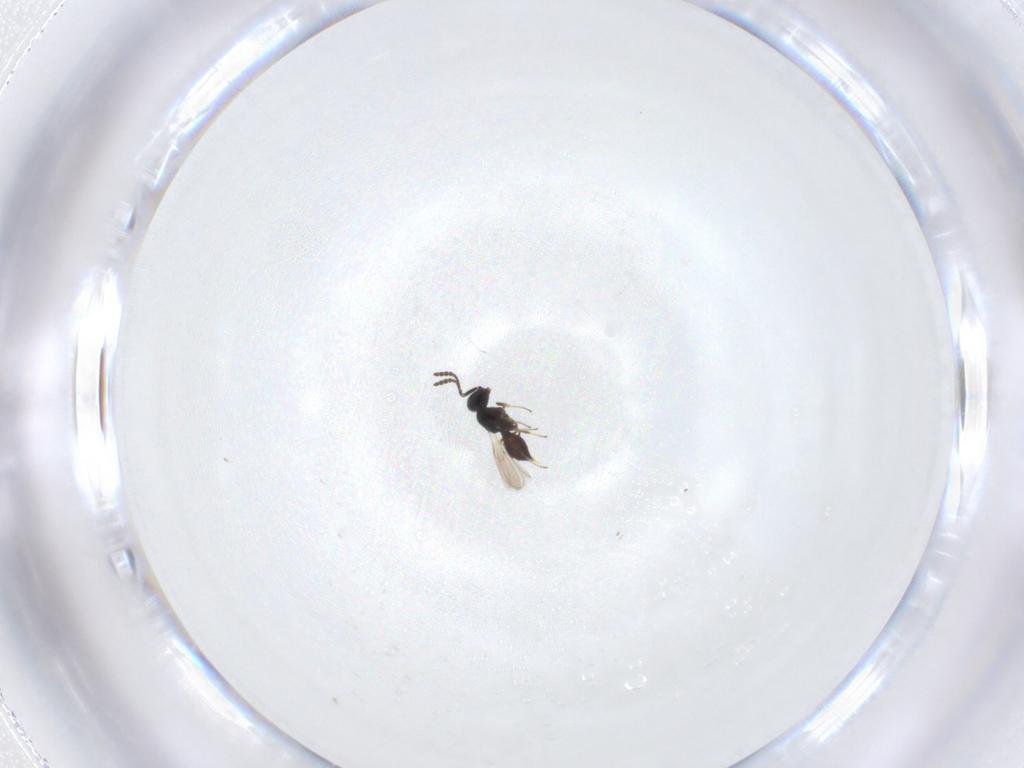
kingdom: Animalia
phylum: Arthropoda
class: Insecta
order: Hymenoptera
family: Scelionidae
